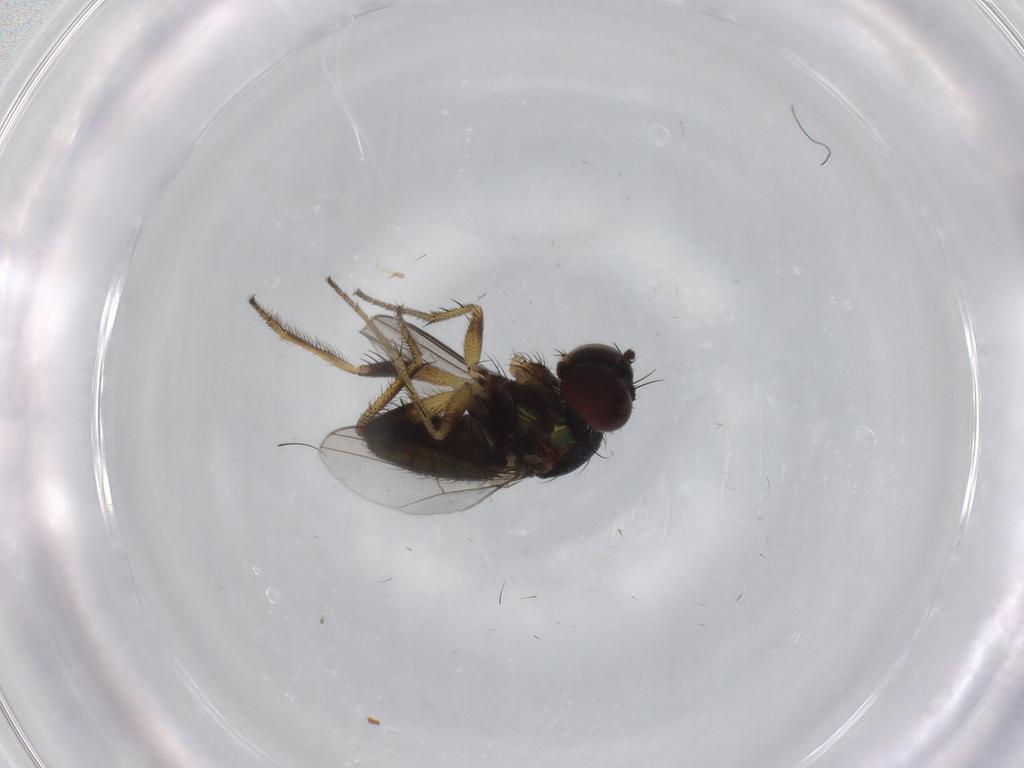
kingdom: Animalia
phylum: Arthropoda
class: Insecta
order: Diptera
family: Dolichopodidae
